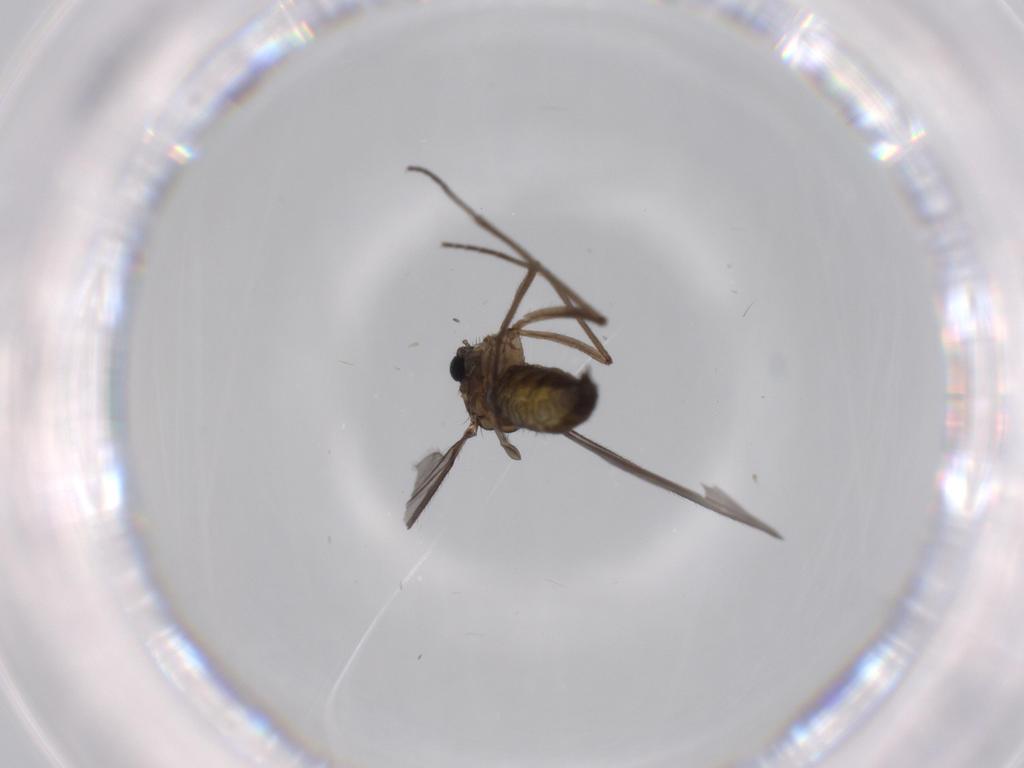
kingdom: Animalia
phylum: Arthropoda
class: Insecta
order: Diptera
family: Sciaridae
